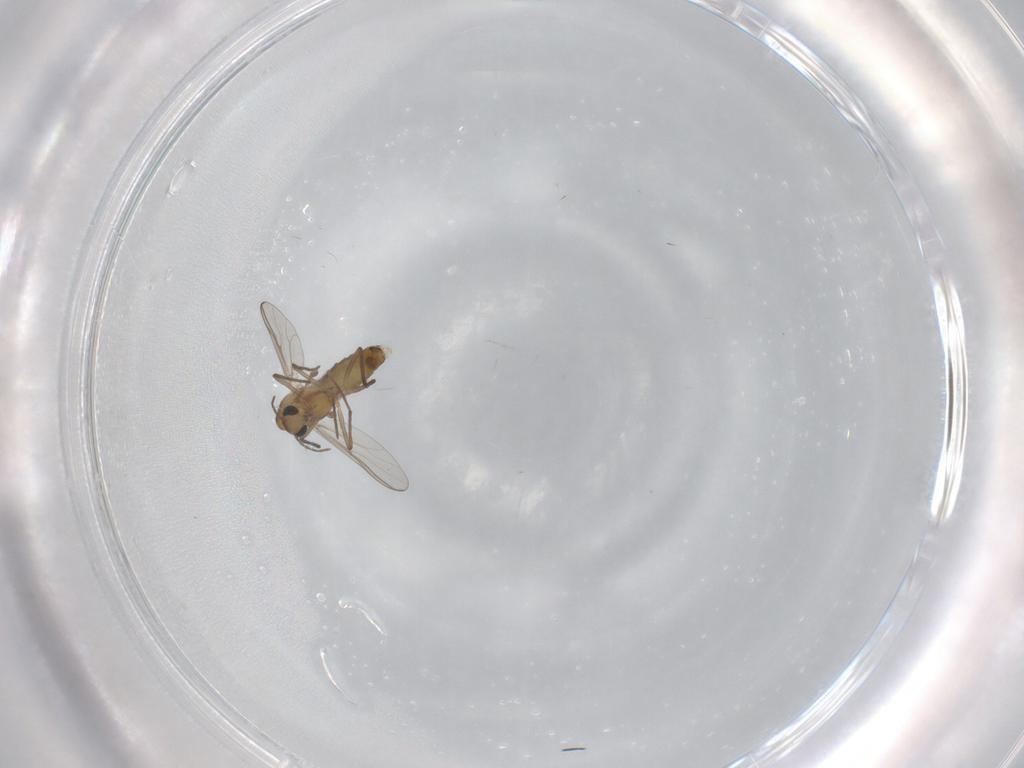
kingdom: Animalia
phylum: Arthropoda
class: Insecta
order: Diptera
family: Chironomidae
